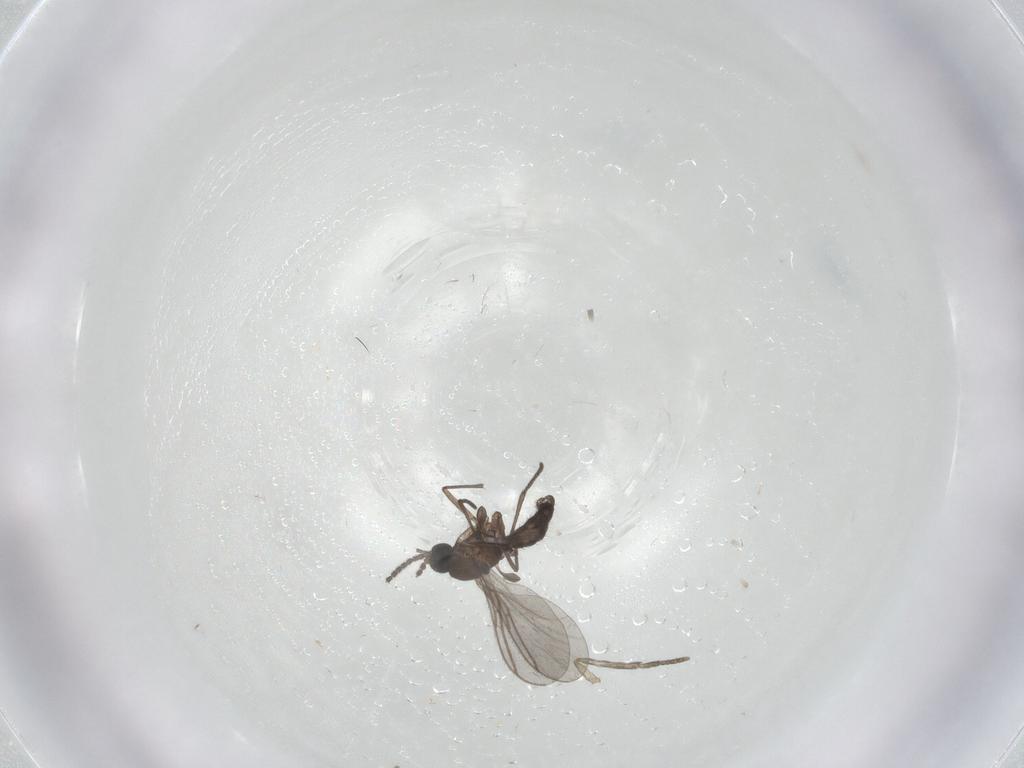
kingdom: Animalia
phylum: Arthropoda
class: Insecta
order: Diptera
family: Psychodidae
